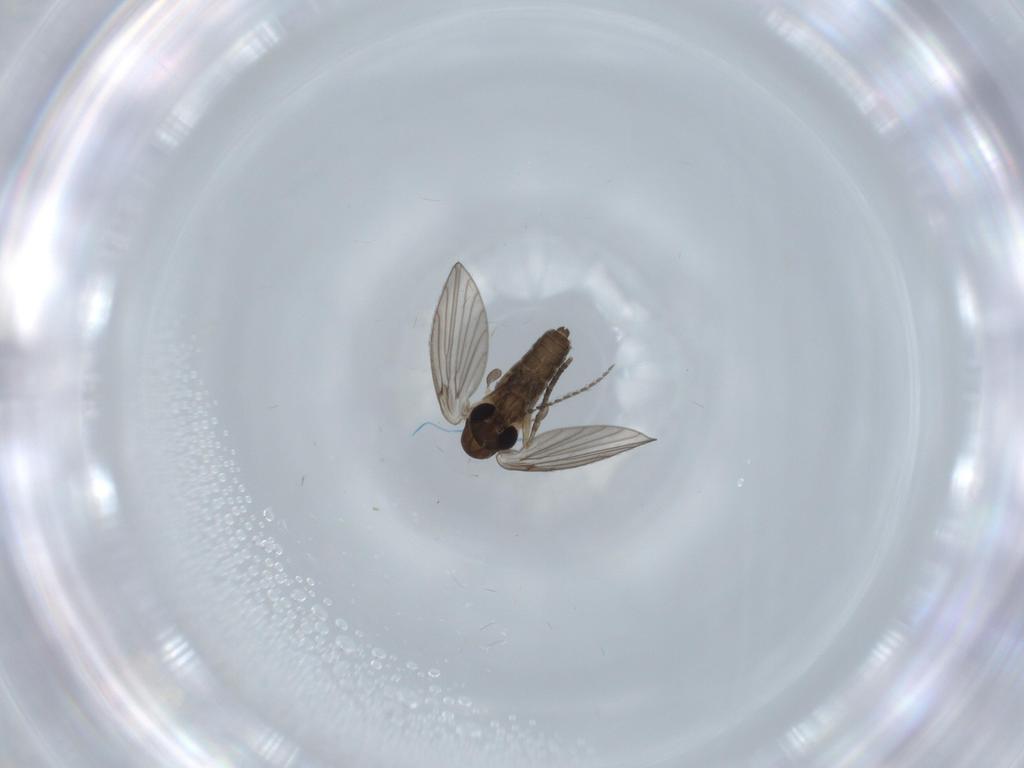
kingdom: Animalia
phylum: Arthropoda
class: Insecta
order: Diptera
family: Psychodidae
